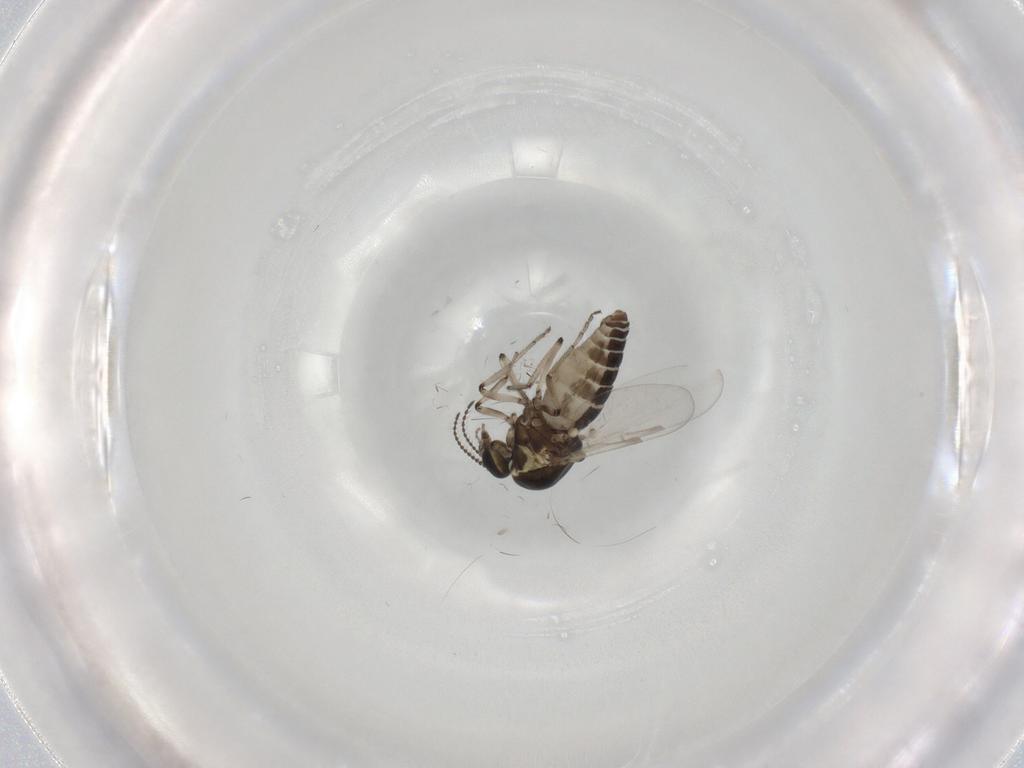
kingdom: Animalia
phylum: Arthropoda
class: Insecta
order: Diptera
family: Ceratopogonidae
